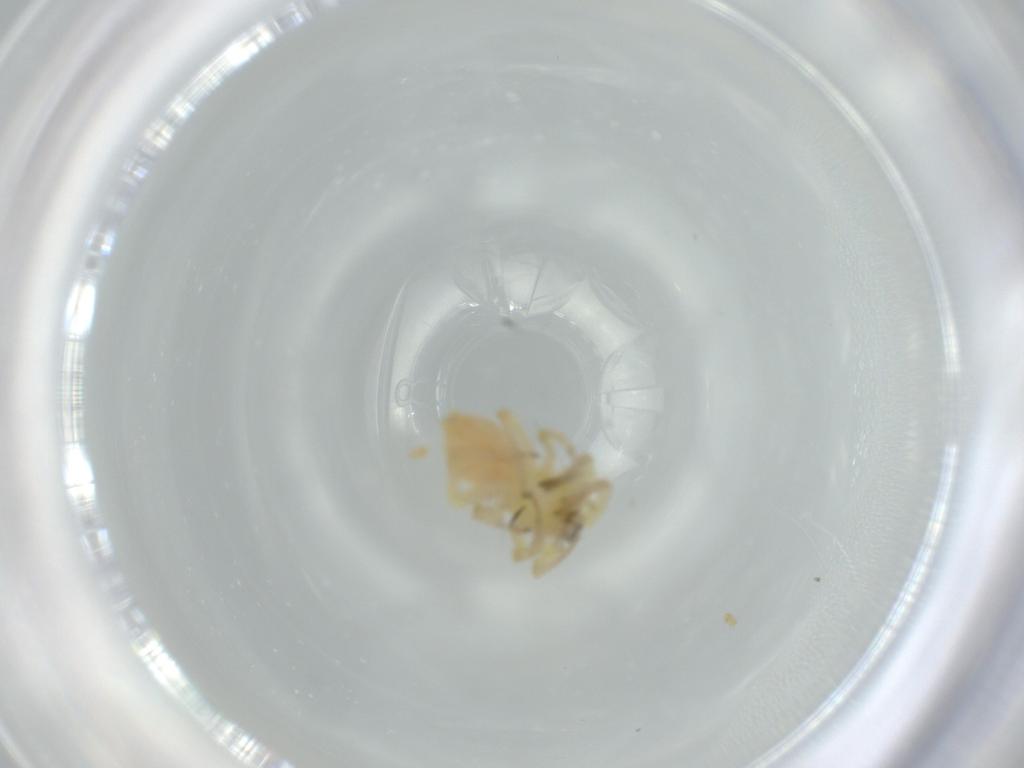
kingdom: Animalia
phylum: Arthropoda
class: Arachnida
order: Araneae
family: Anyphaenidae
